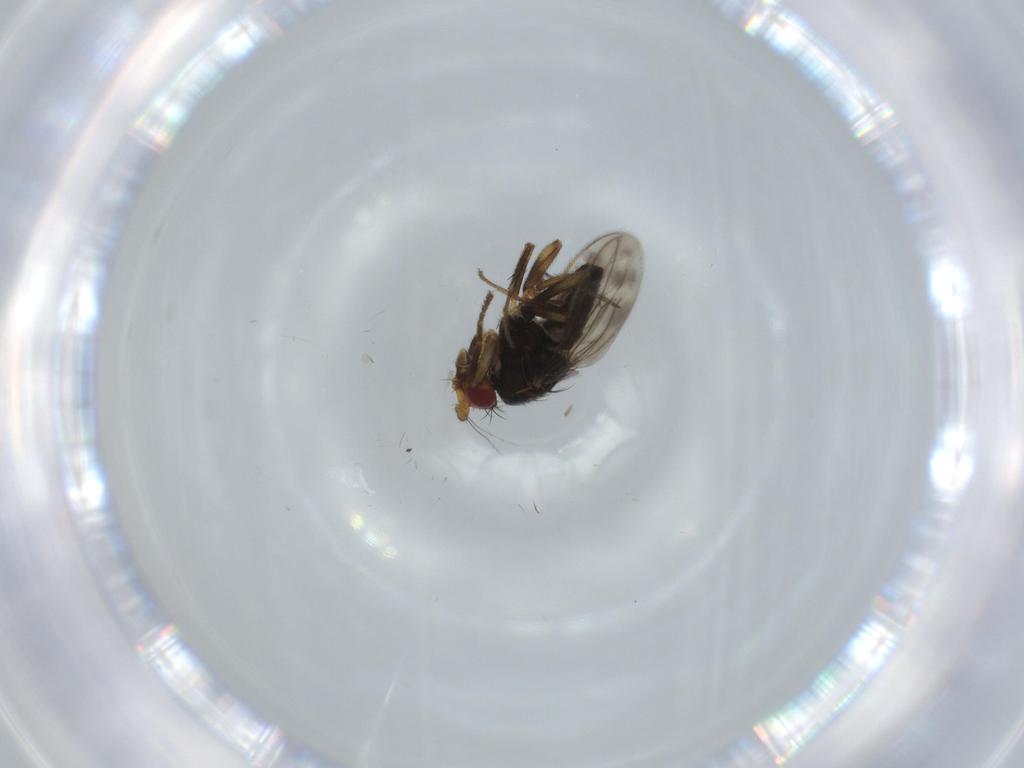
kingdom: Animalia
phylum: Arthropoda
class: Insecta
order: Diptera
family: Sphaeroceridae
